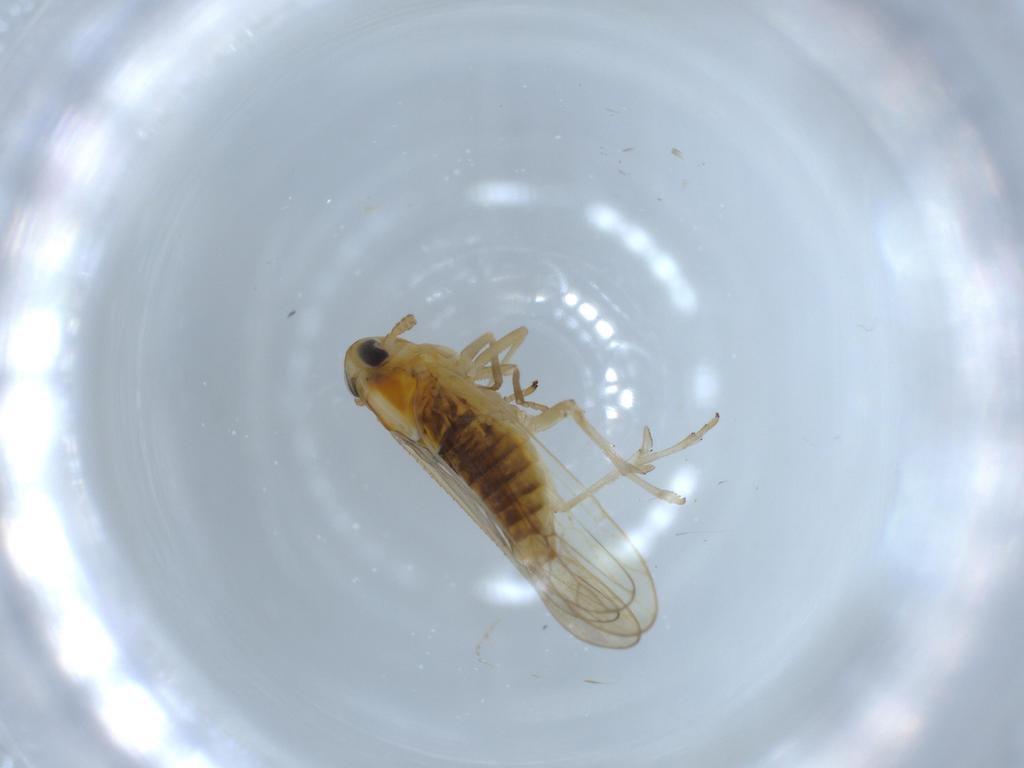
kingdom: Animalia
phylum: Arthropoda
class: Insecta
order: Hemiptera
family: Delphacidae
